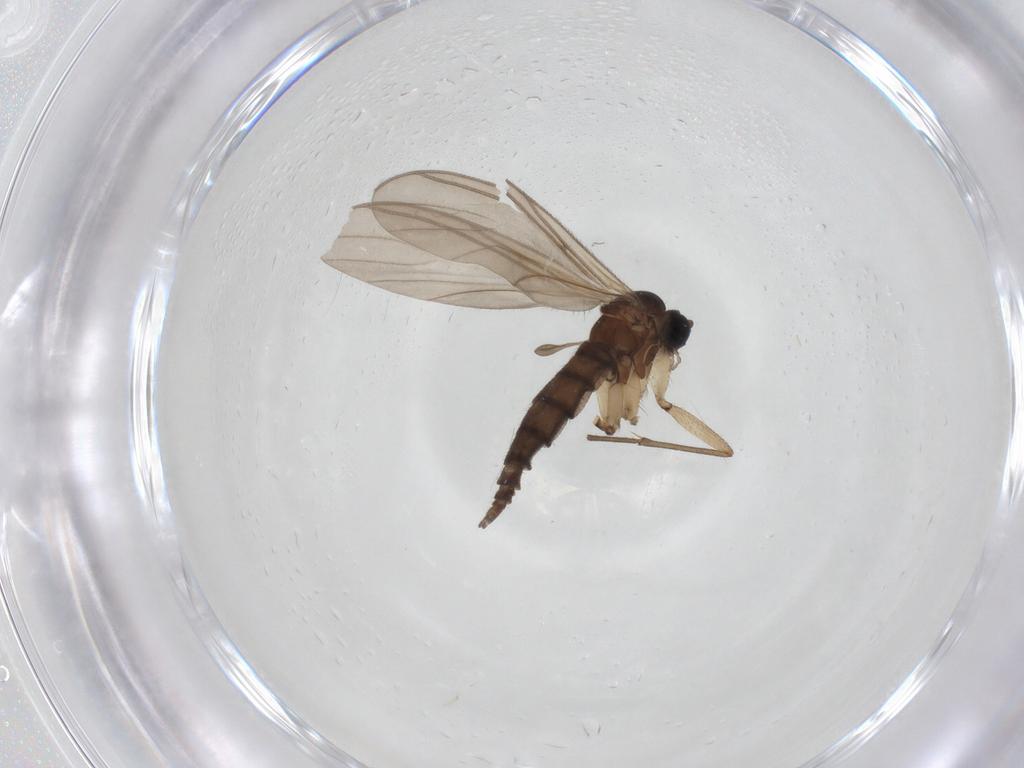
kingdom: Animalia
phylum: Arthropoda
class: Insecta
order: Diptera
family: Sciaridae
